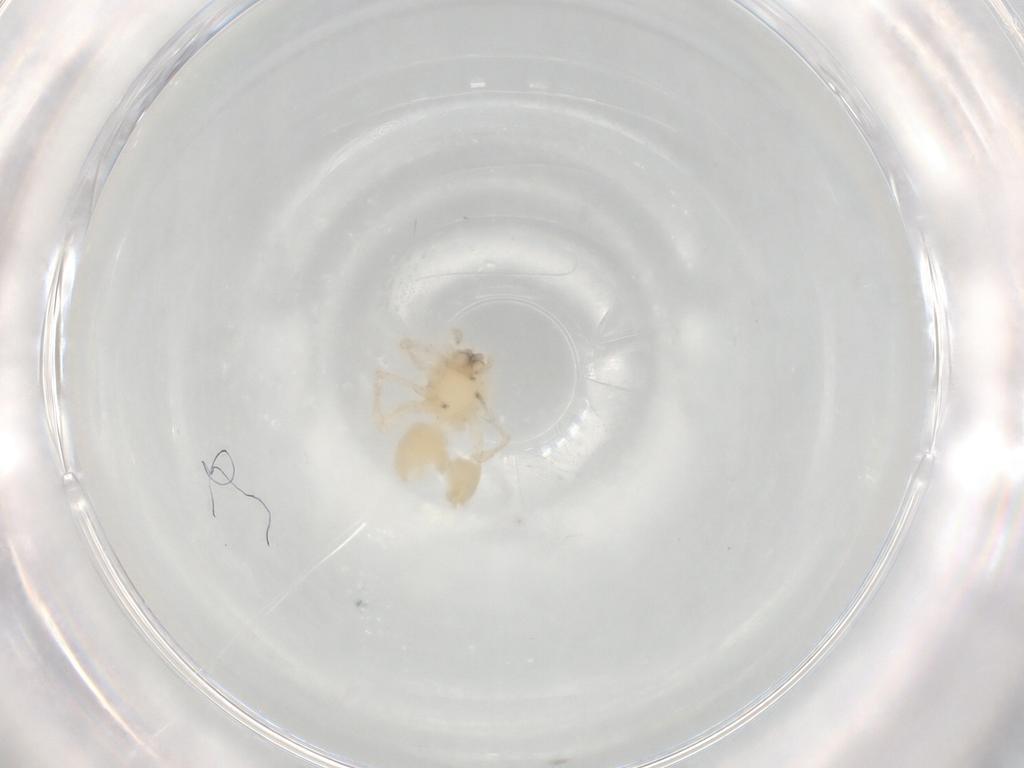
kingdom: Animalia
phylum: Arthropoda
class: Arachnida
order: Araneae
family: Anyphaenidae
